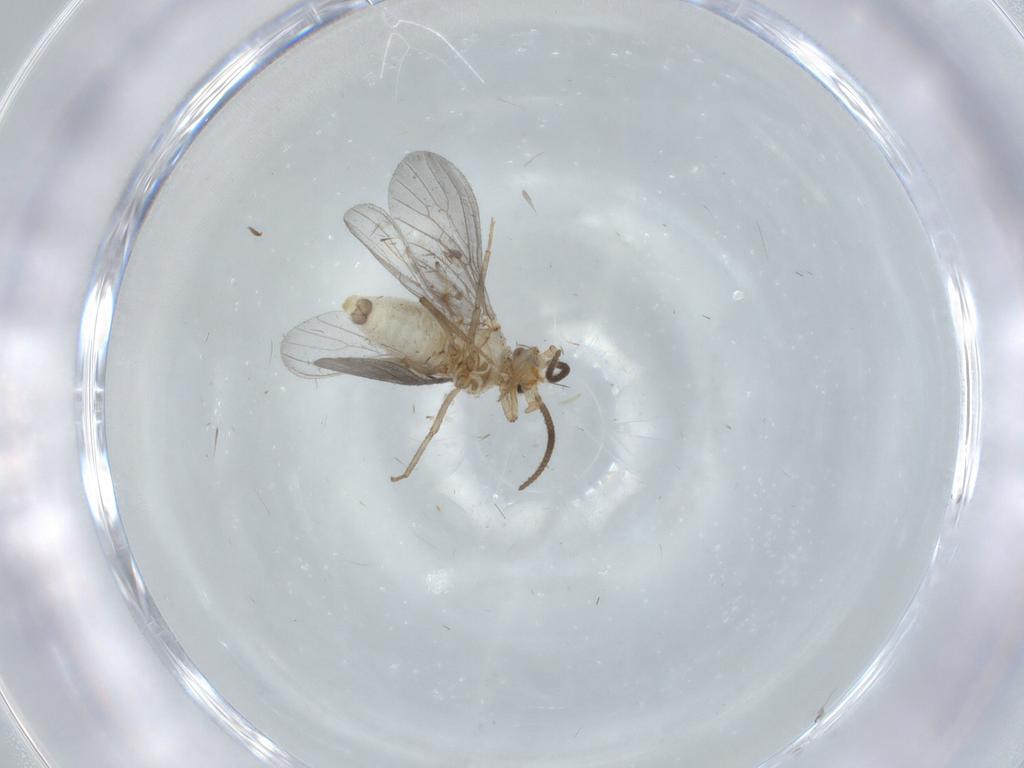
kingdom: Animalia
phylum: Arthropoda
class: Insecta
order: Neuroptera
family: Coniopterygidae
